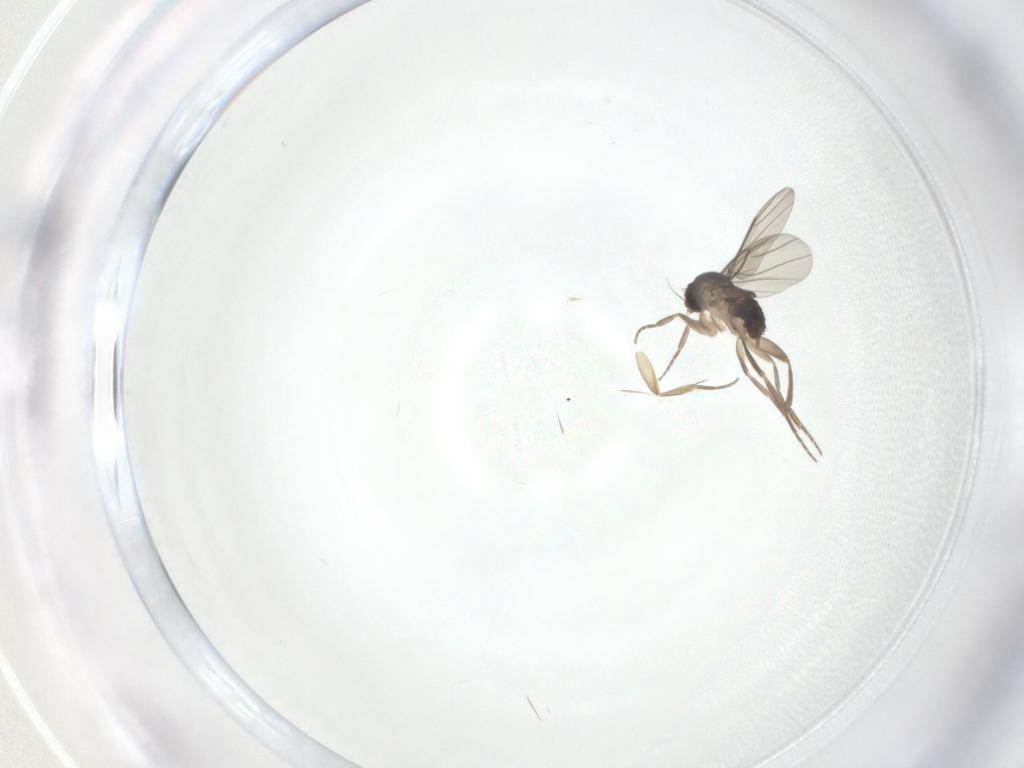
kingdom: Animalia
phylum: Arthropoda
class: Insecta
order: Diptera
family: Phoridae
